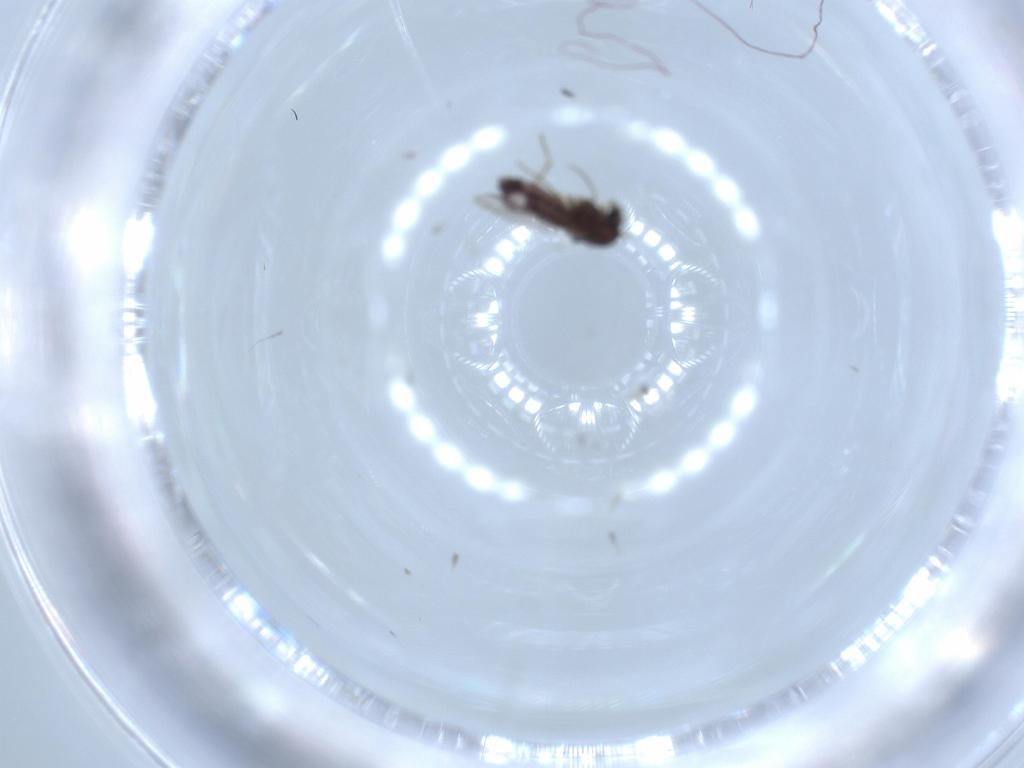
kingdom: Animalia
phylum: Arthropoda
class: Insecta
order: Diptera
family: Chironomidae
